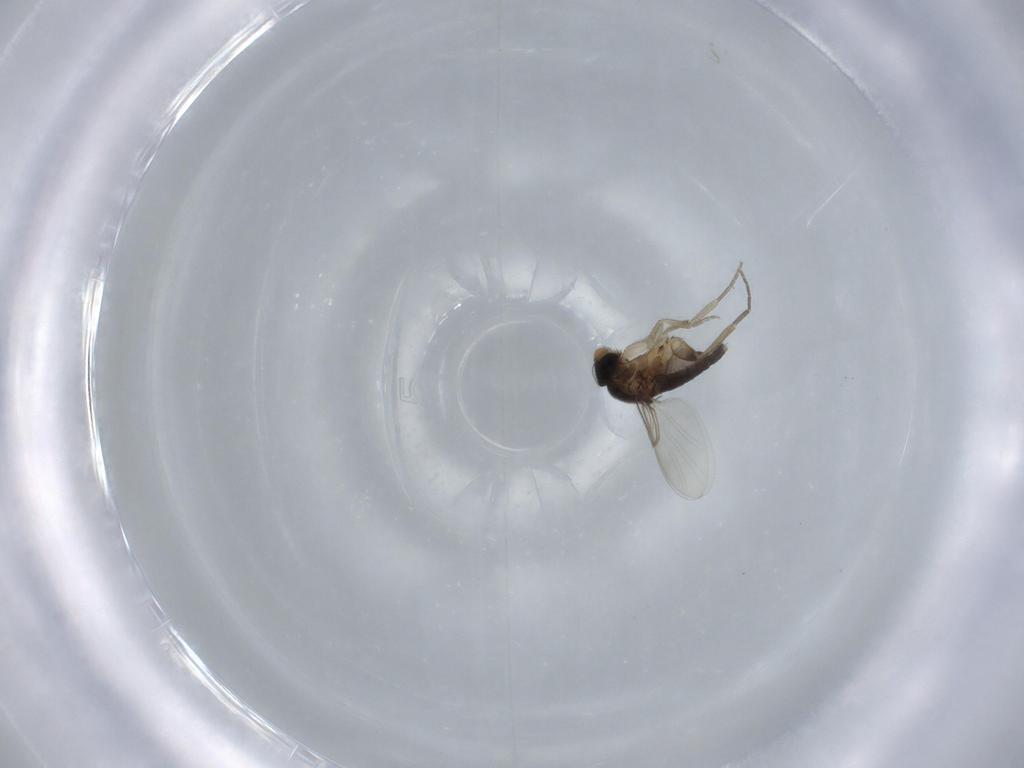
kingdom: Animalia
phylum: Arthropoda
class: Insecta
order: Diptera
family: Phoridae
